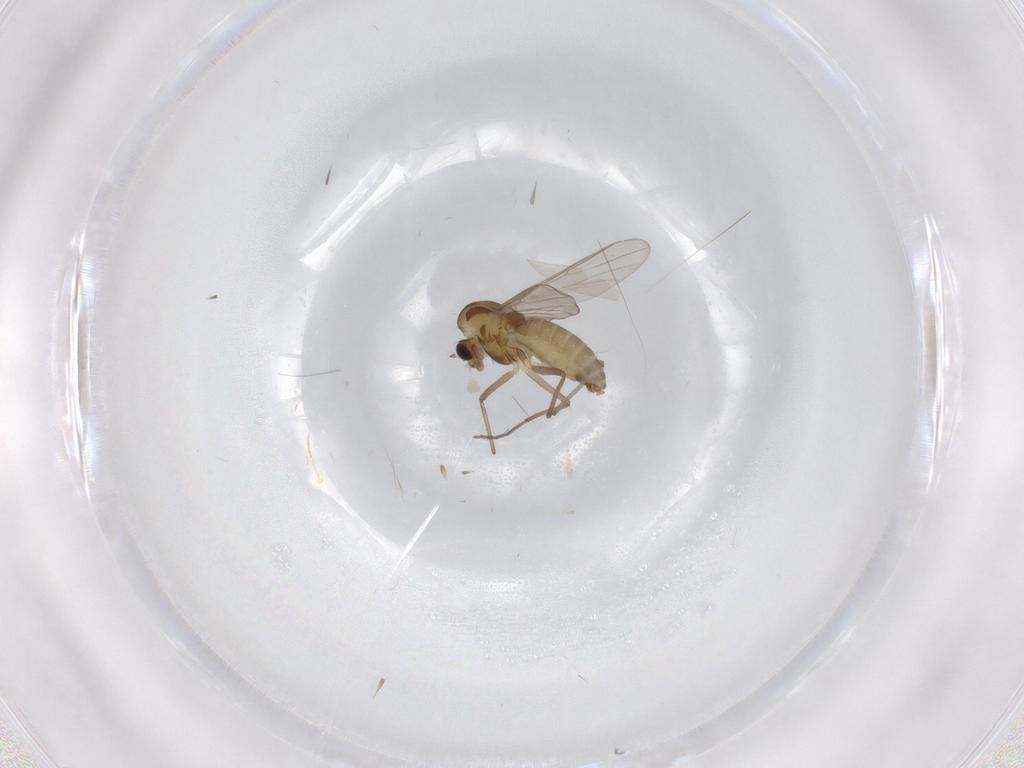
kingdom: Animalia
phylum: Arthropoda
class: Insecta
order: Diptera
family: Chironomidae
